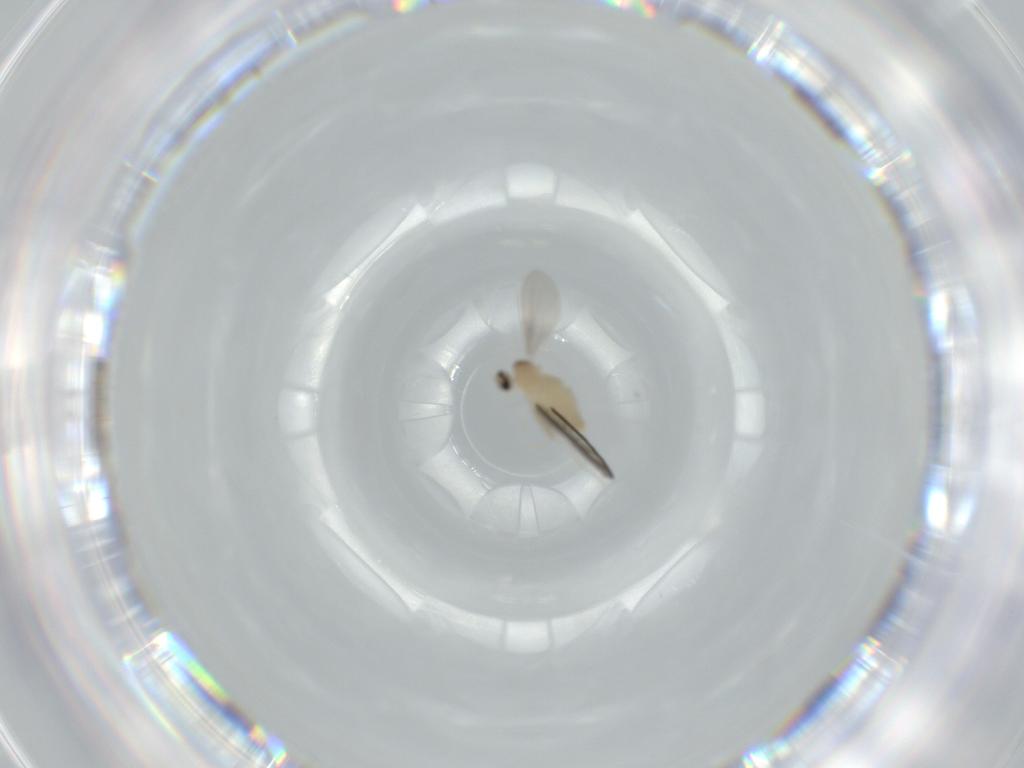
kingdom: Animalia
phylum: Arthropoda
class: Insecta
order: Diptera
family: Cecidomyiidae
